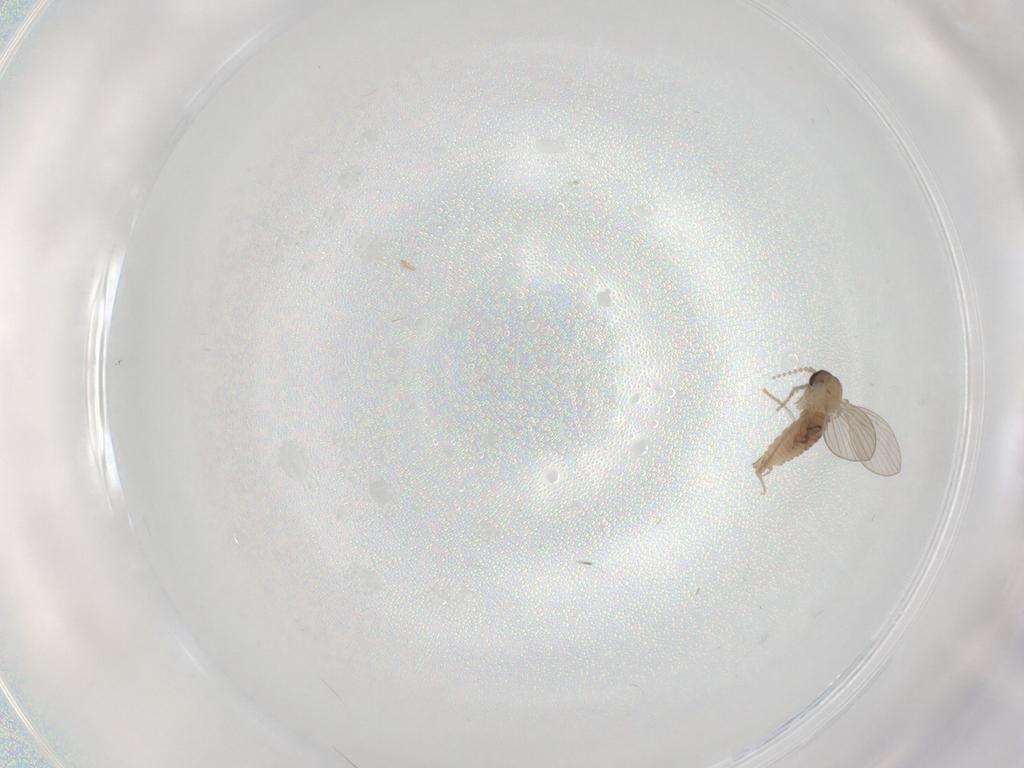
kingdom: Animalia
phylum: Arthropoda
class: Insecta
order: Diptera
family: Psychodidae
